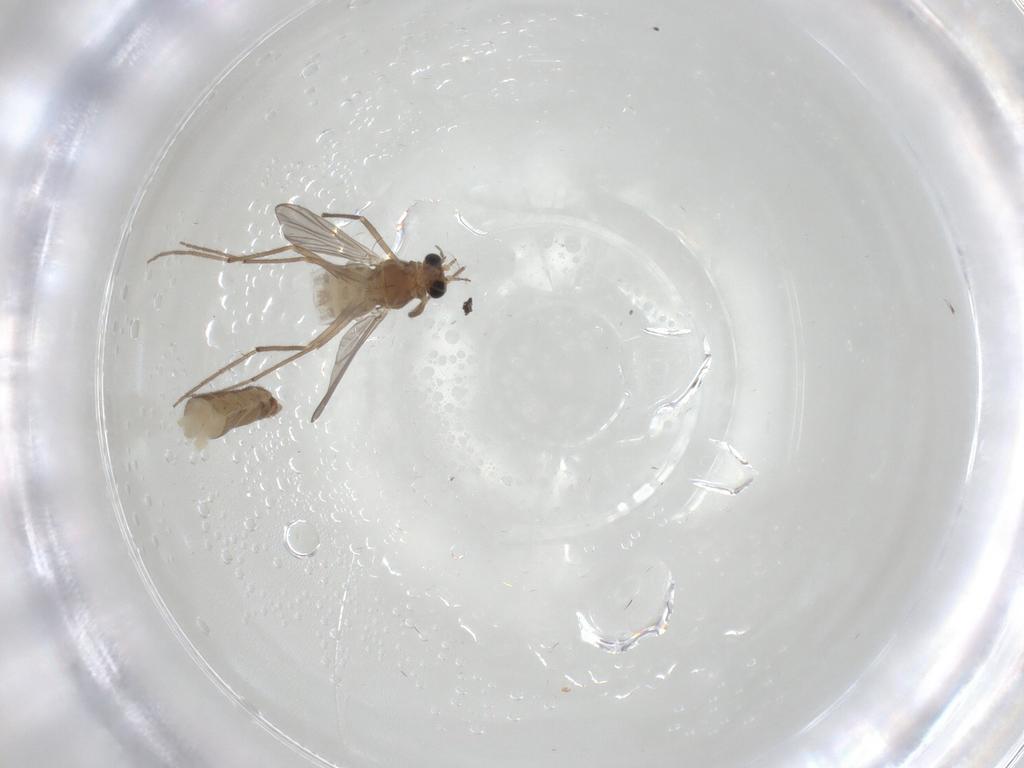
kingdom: Animalia
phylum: Arthropoda
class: Insecta
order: Diptera
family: Chironomidae
